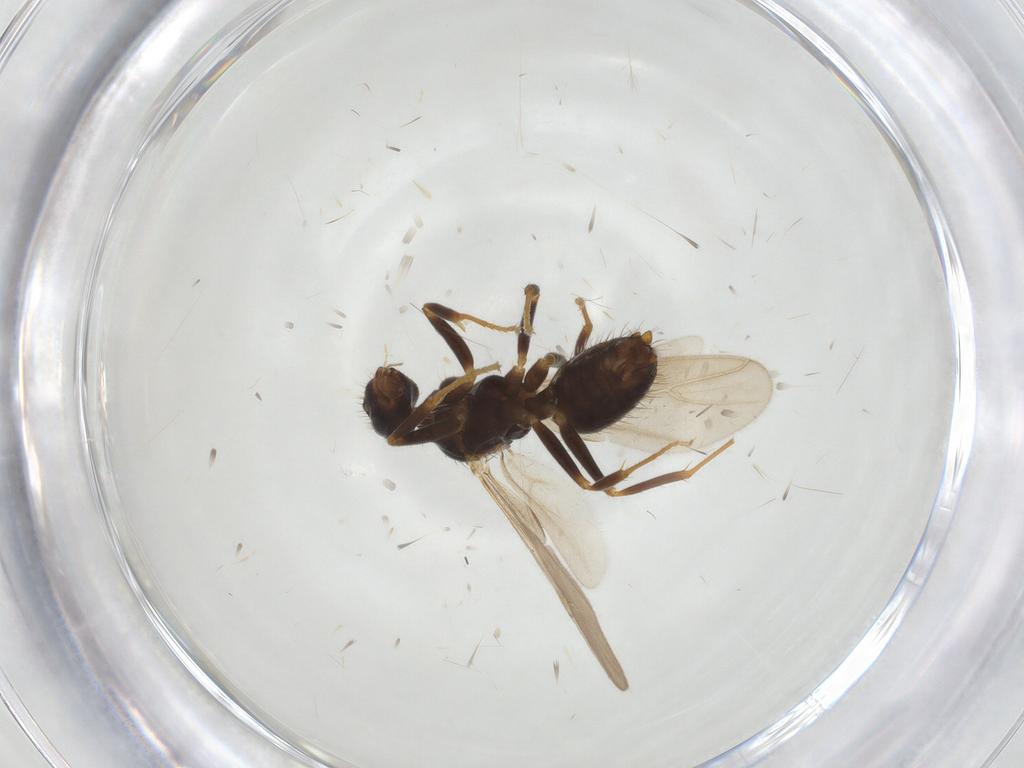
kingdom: Animalia
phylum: Arthropoda
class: Insecta
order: Hymenoptera
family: Formicidae
